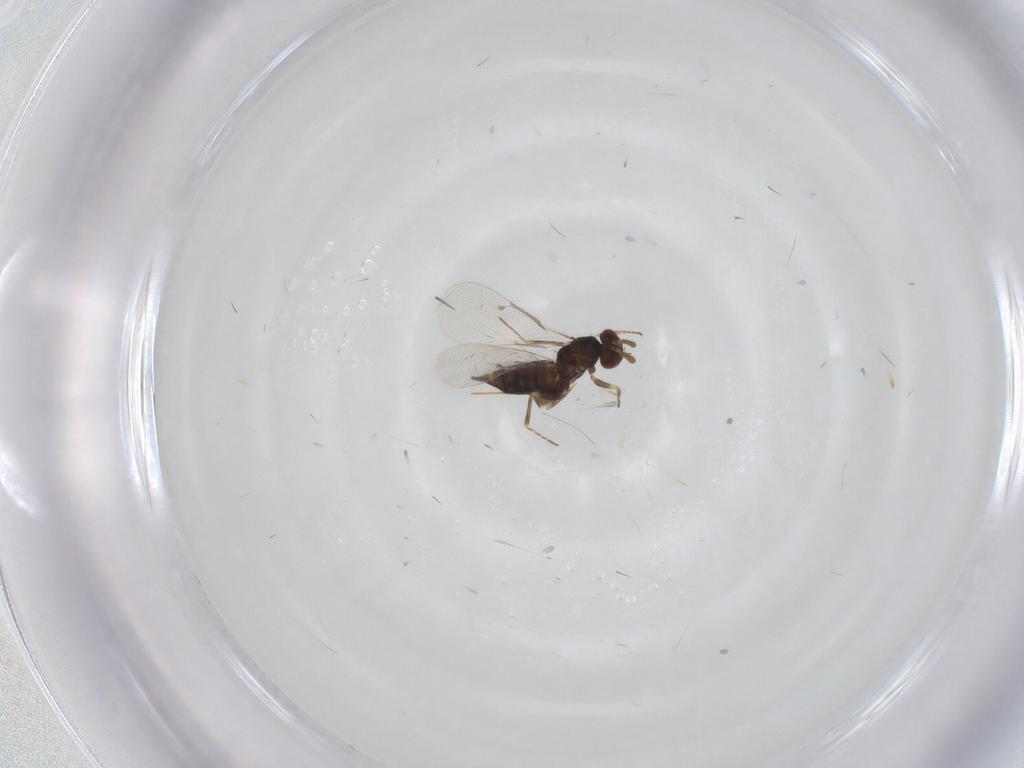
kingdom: Animalia
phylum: Arthropoda
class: Insecta
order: Hymenoptera
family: Eulophidae
